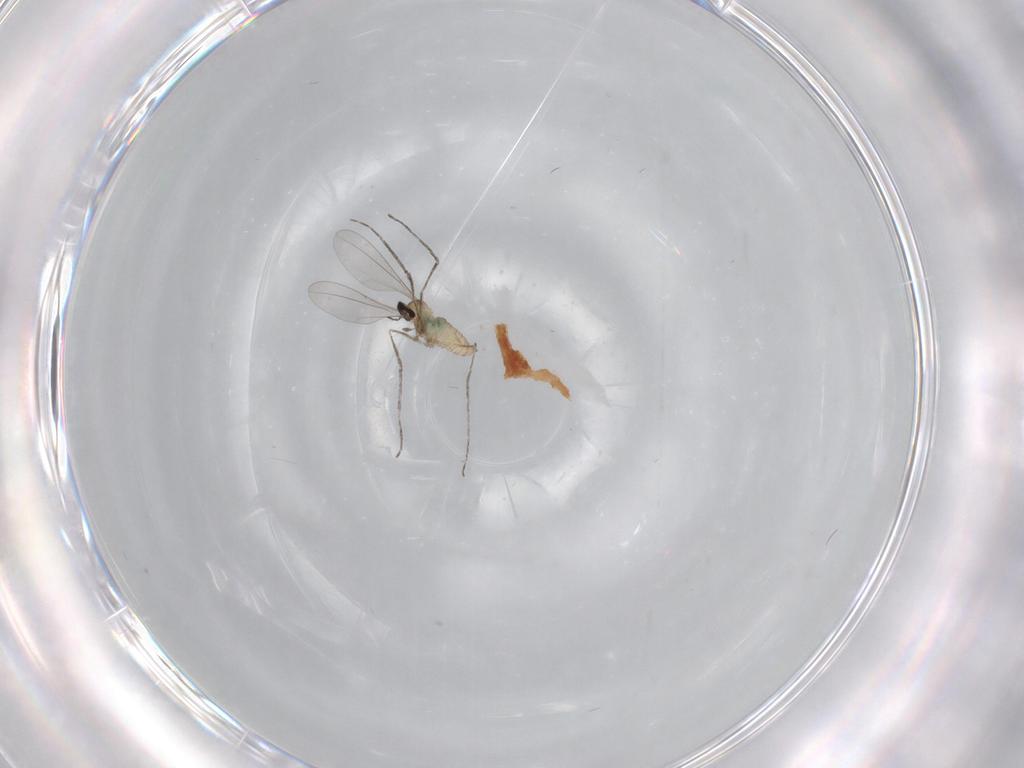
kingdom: Animalia
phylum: Arthropoda
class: Insecta
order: Diptera
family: Cecidomyiidae
